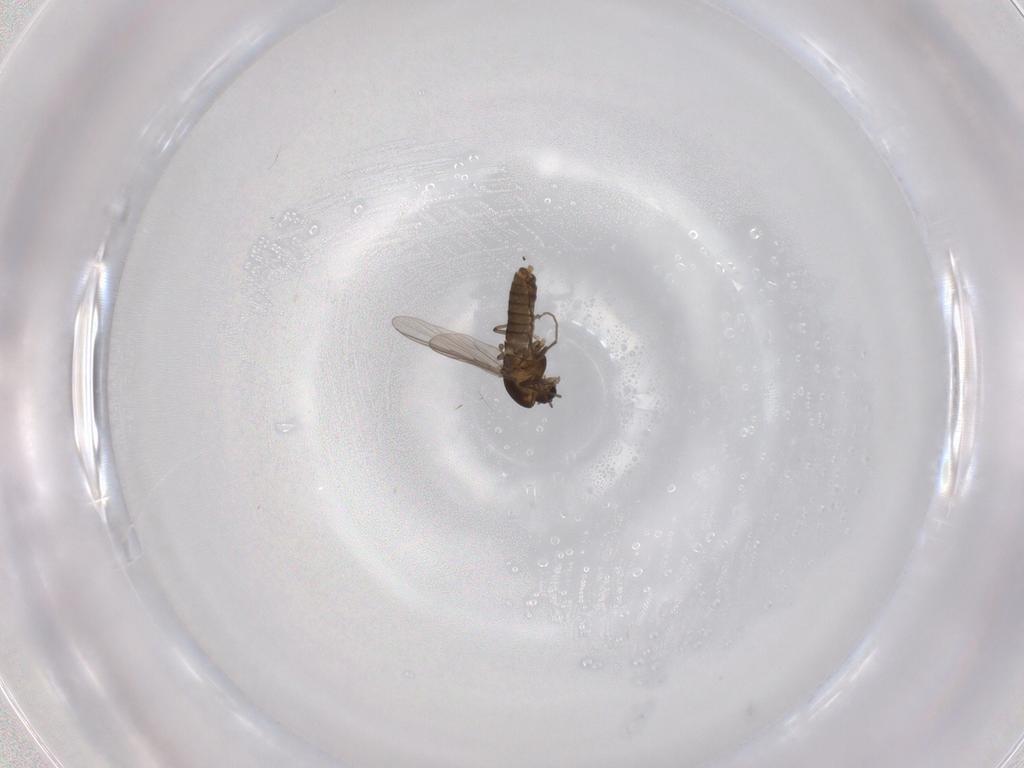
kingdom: Animalia
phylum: Arthropoda
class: Insecta
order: Diptera
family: Chironomidae
